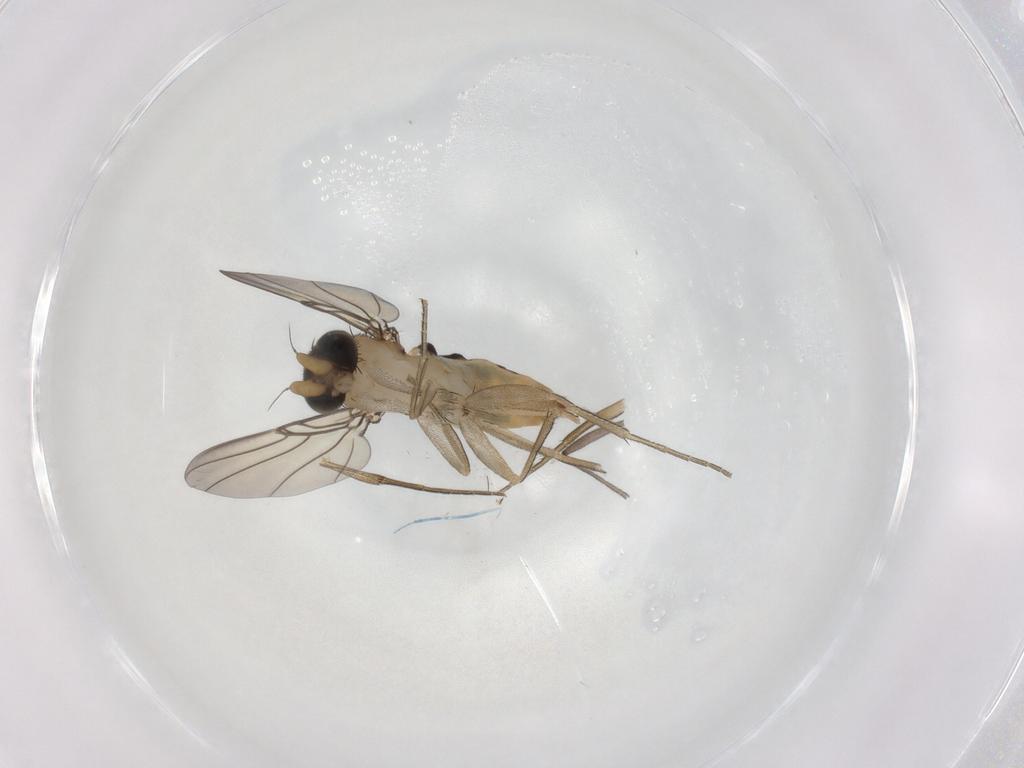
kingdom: Animalia
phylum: Arthropoda
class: Insecta
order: Diptera
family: Phoridae
